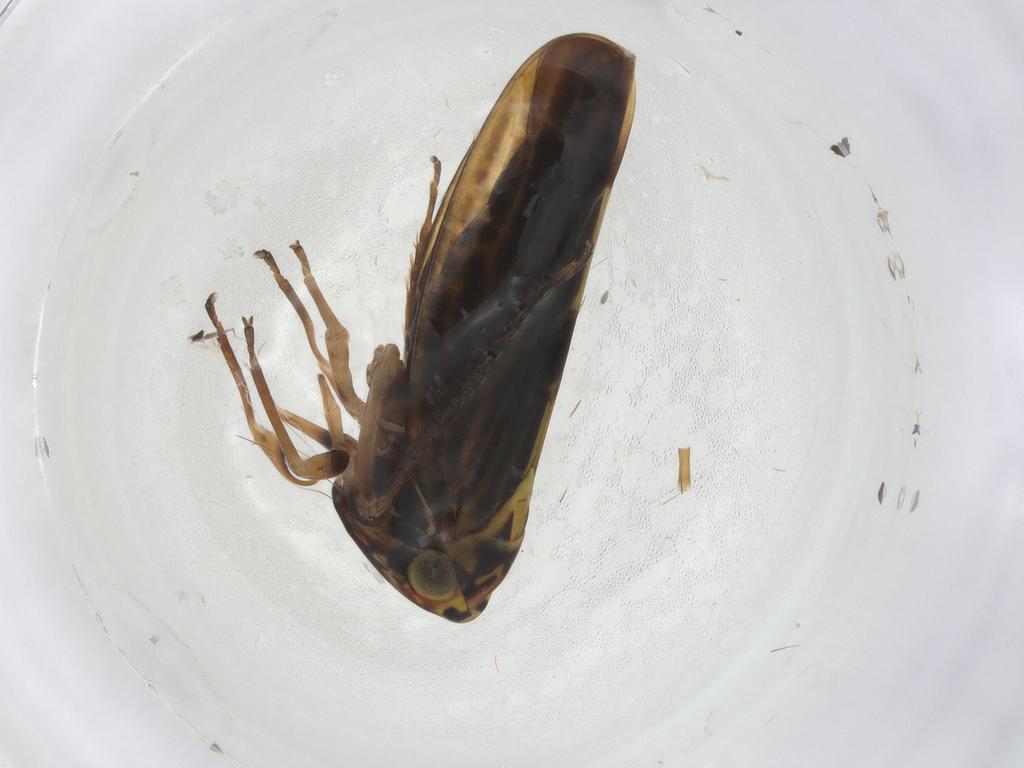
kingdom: Animalia
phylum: Arthropoda
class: Insecta
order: Hemiptera
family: Cicadellidae
